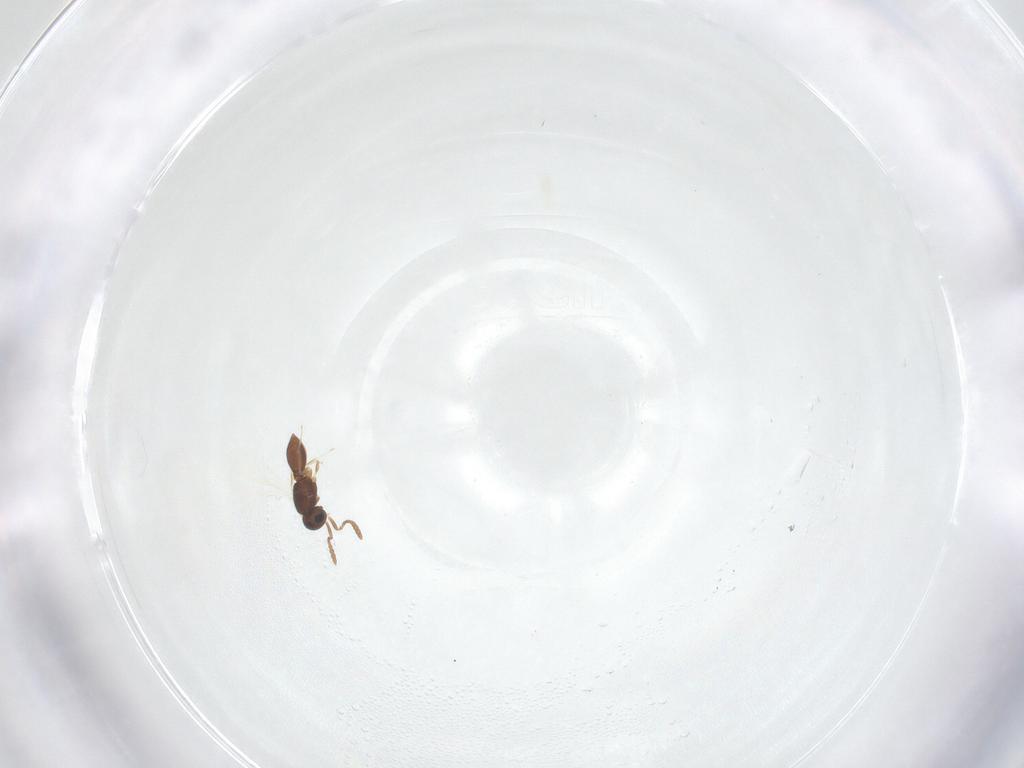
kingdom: Animalia
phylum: Arthropoda
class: Insecta
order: Hymenoptera
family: Scelionidae
